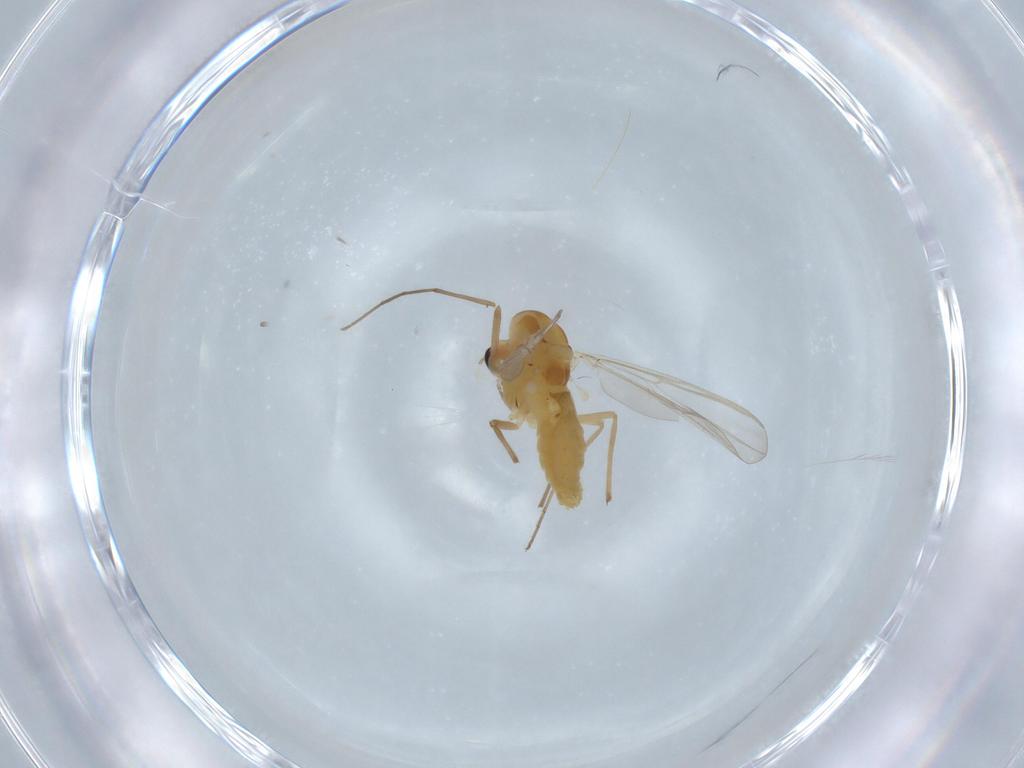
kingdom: Animalia
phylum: Arthropoda
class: Insecta
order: Diptera
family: Chironomidae
